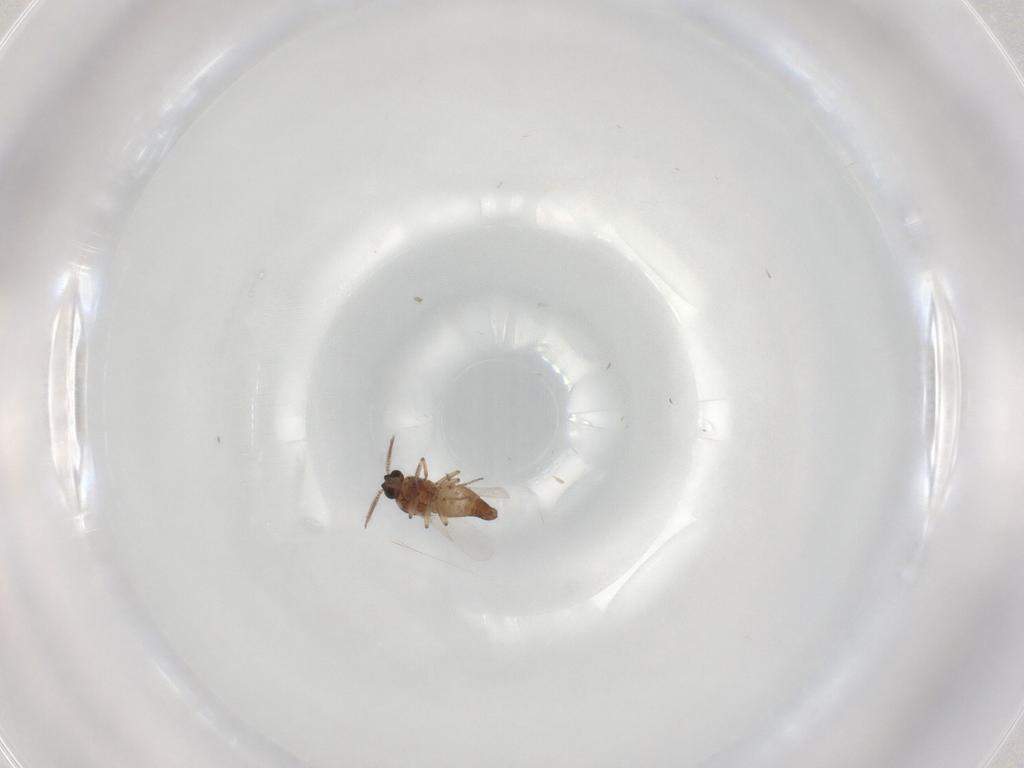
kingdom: Animalia
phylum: Arthropoda
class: Insecta
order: Diptera
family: Ceratopogonidae
